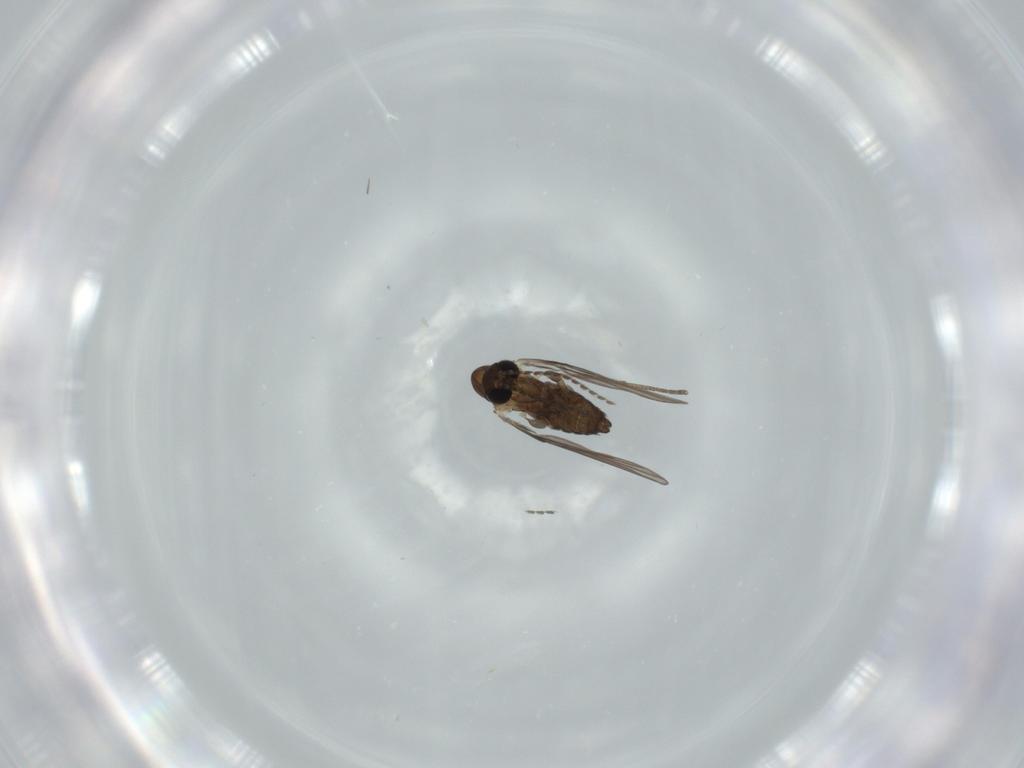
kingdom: Animalia
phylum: Arthropoda
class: Insecta
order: Diptera
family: Psychodidae
